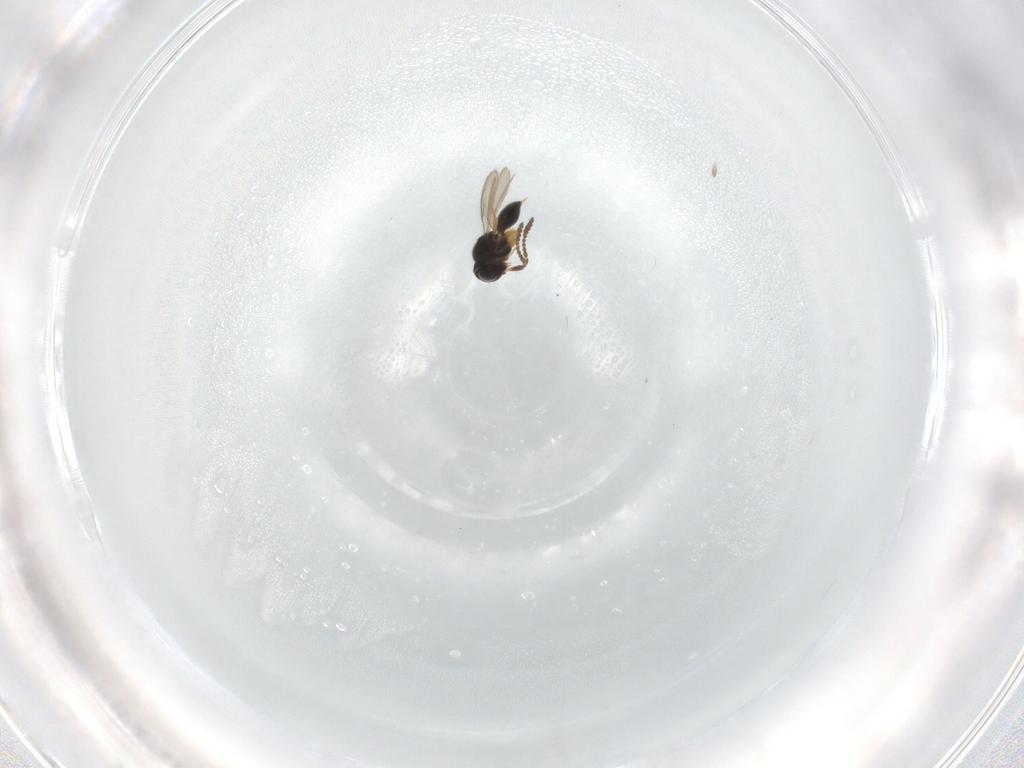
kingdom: Animalia
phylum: Arthropoda
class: Insecta
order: Hymenoptera
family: Eulophidae
